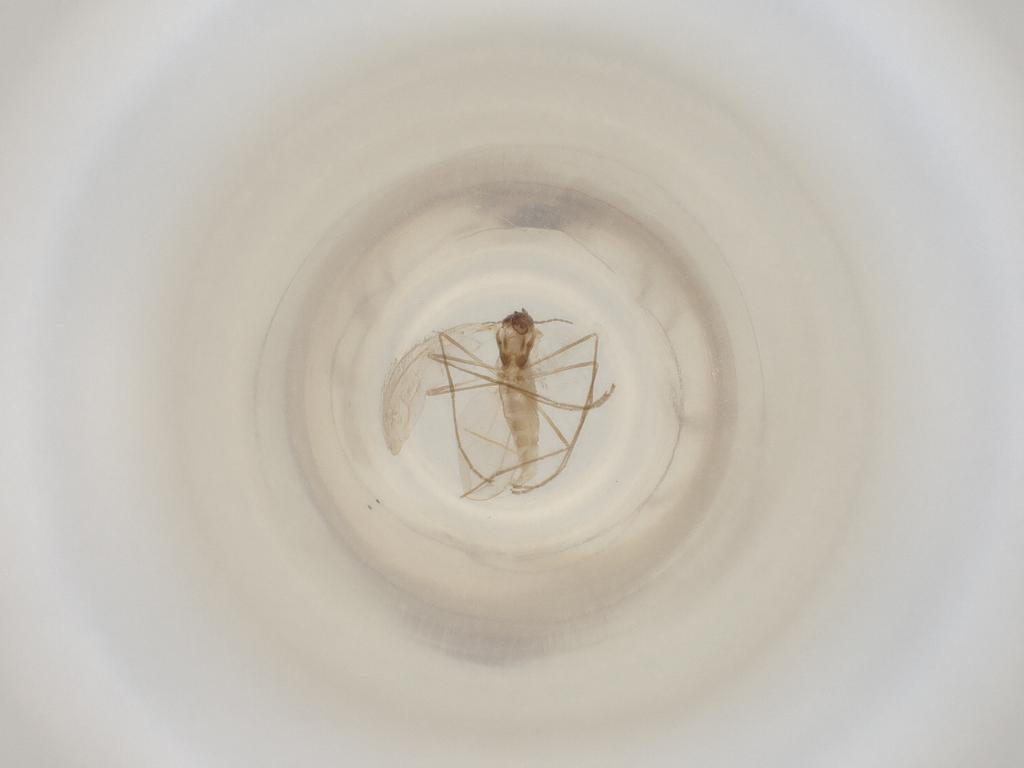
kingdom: Animalia
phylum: Arthropoda
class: Insecta
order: Diptera
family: Cecidomyiidae
